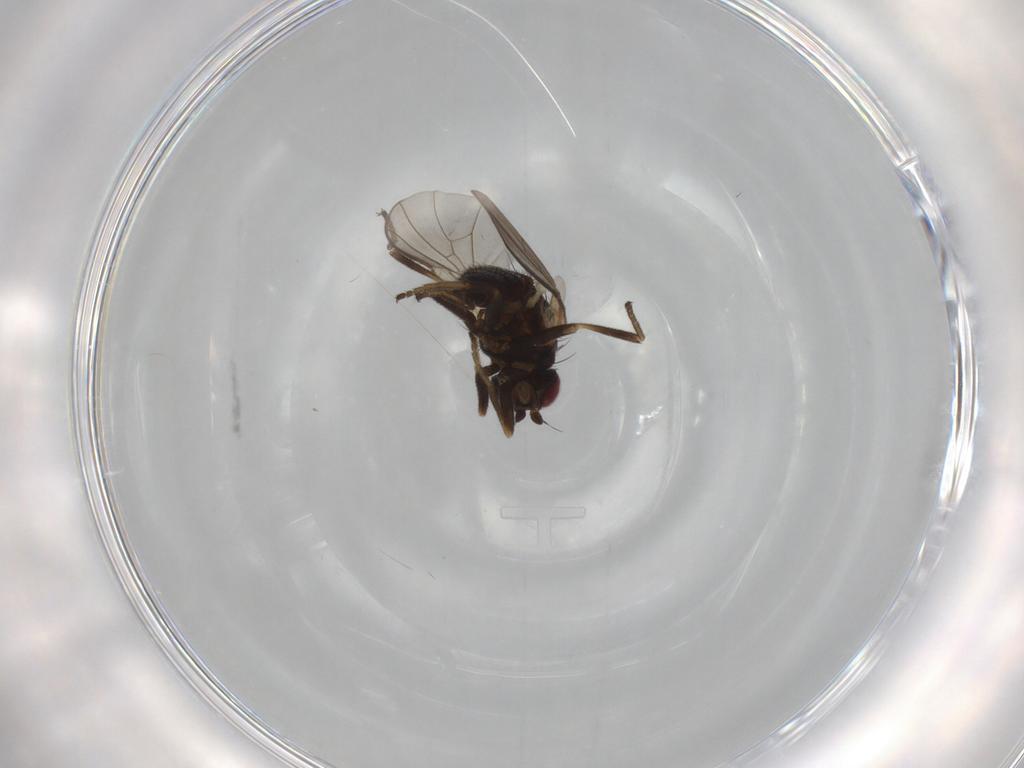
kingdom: Animalia
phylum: Arthropoda
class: Insecta
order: Diptera
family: Agromyzidae
